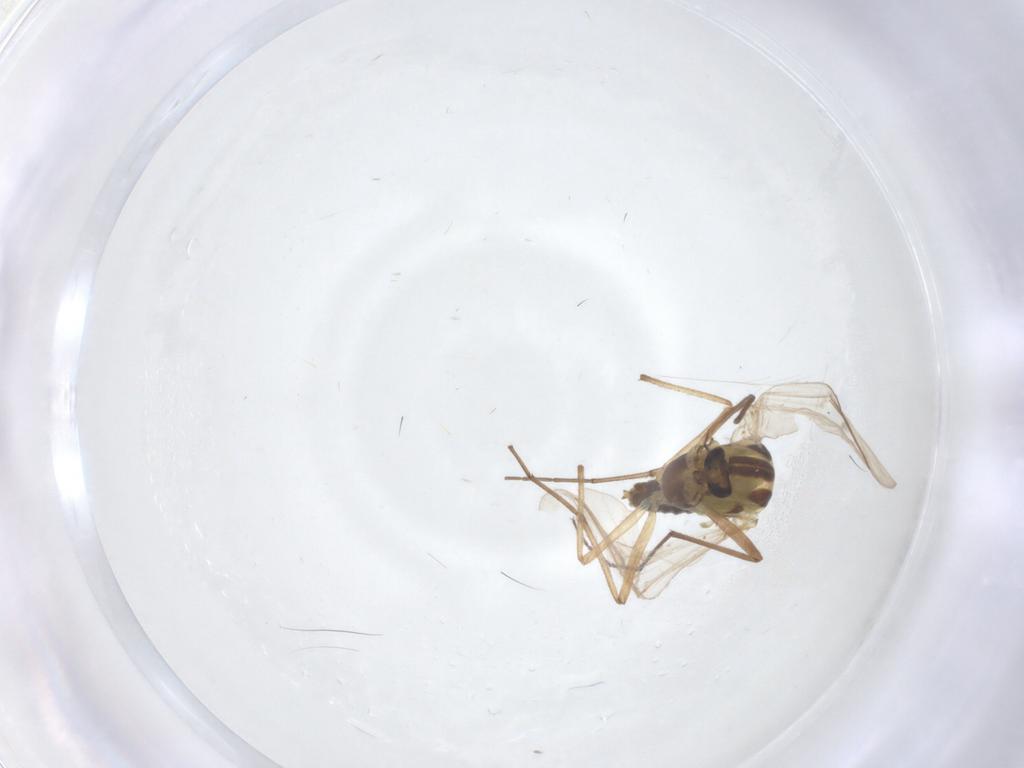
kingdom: Animalia
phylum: Arthropoda
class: Insecta
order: Diptera
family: Chironomidae
